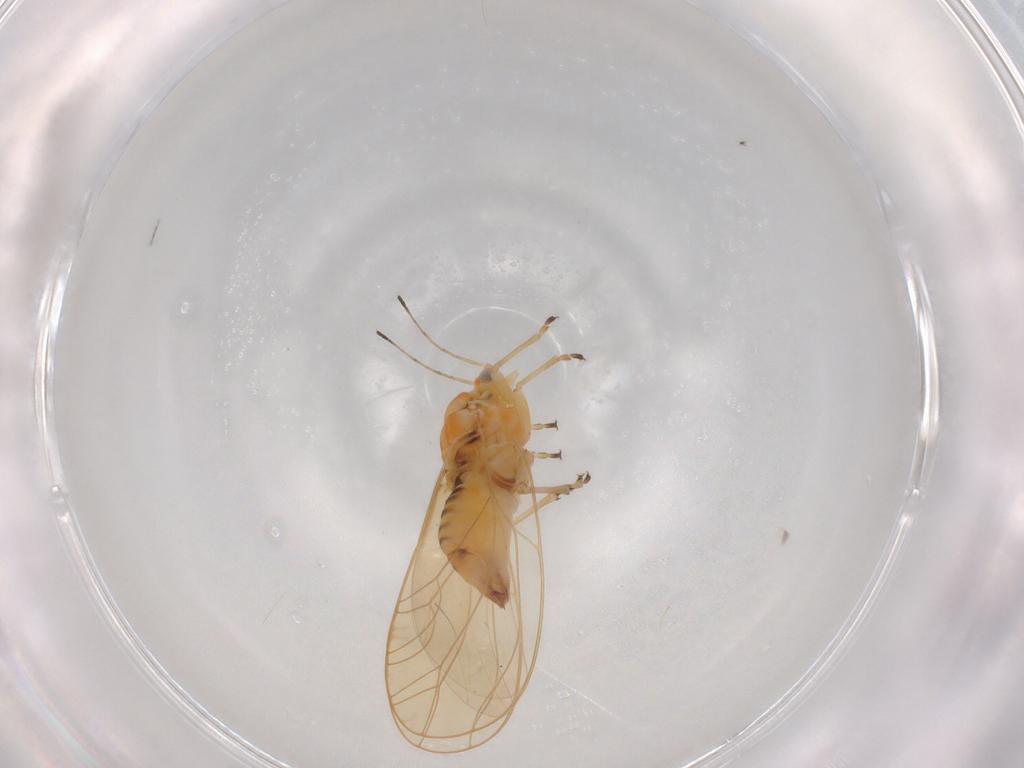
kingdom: Animalia
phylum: Arthropoda
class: Insecta
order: Hemiptera
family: Triozidae
